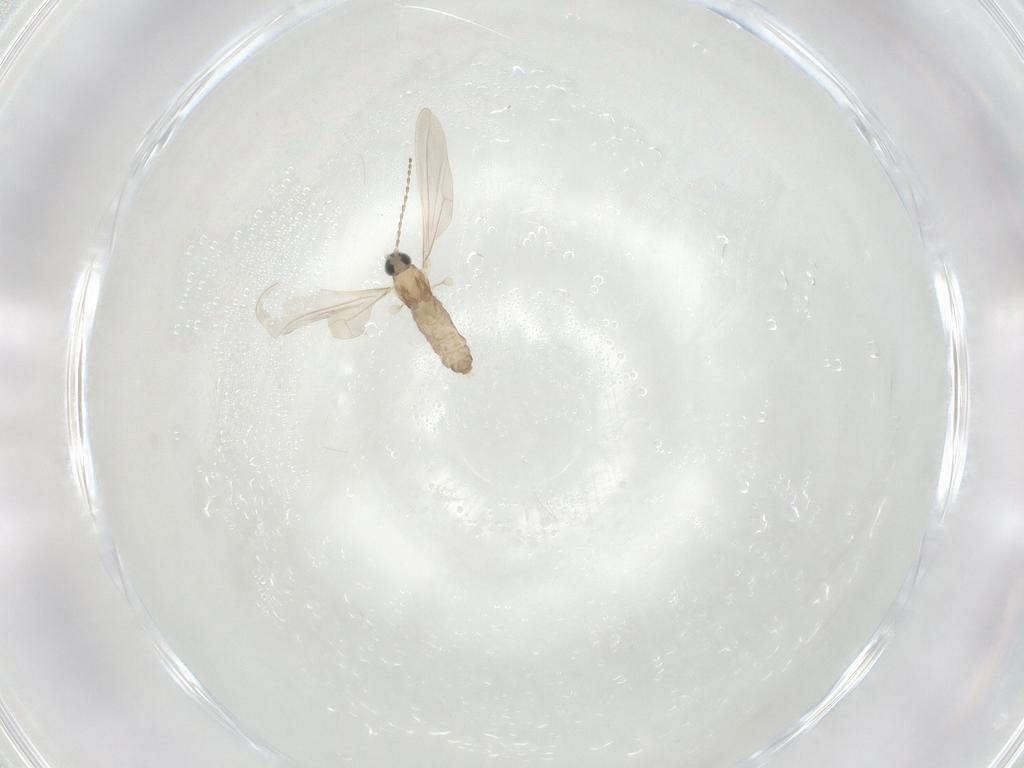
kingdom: Animalia
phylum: Arthropoda
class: Insecta
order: Diptera
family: Cecidomyiidae
